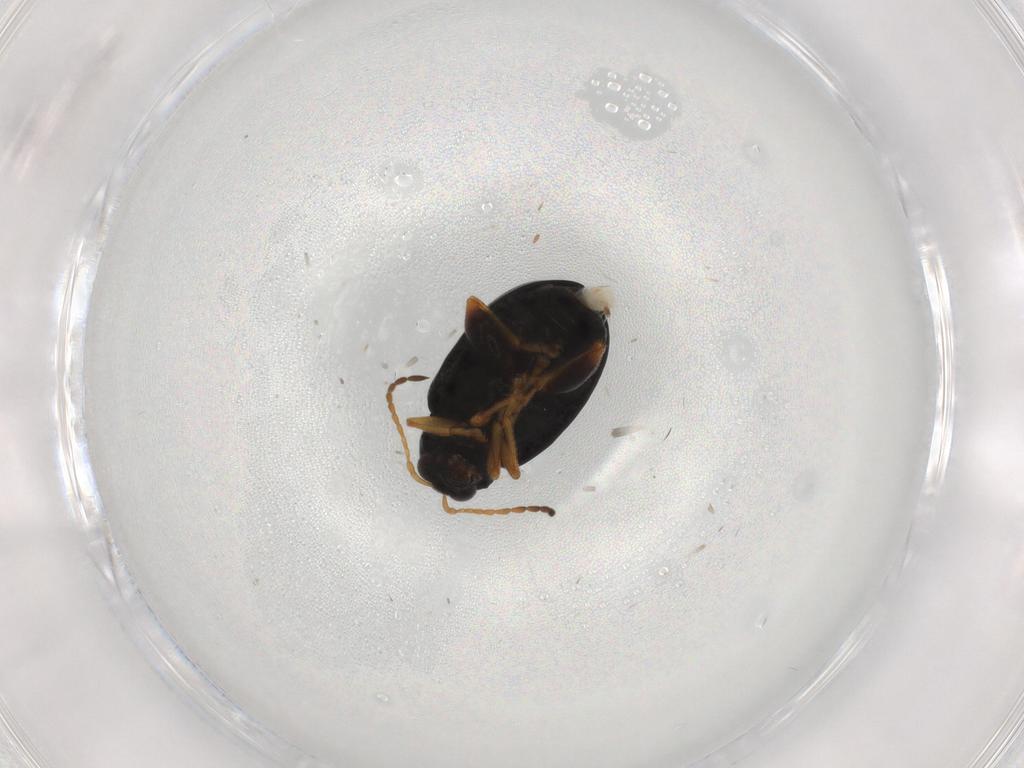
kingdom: Animalia
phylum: Arthropoda
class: Insecta
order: Coleoptera
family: Chrysomelidae
